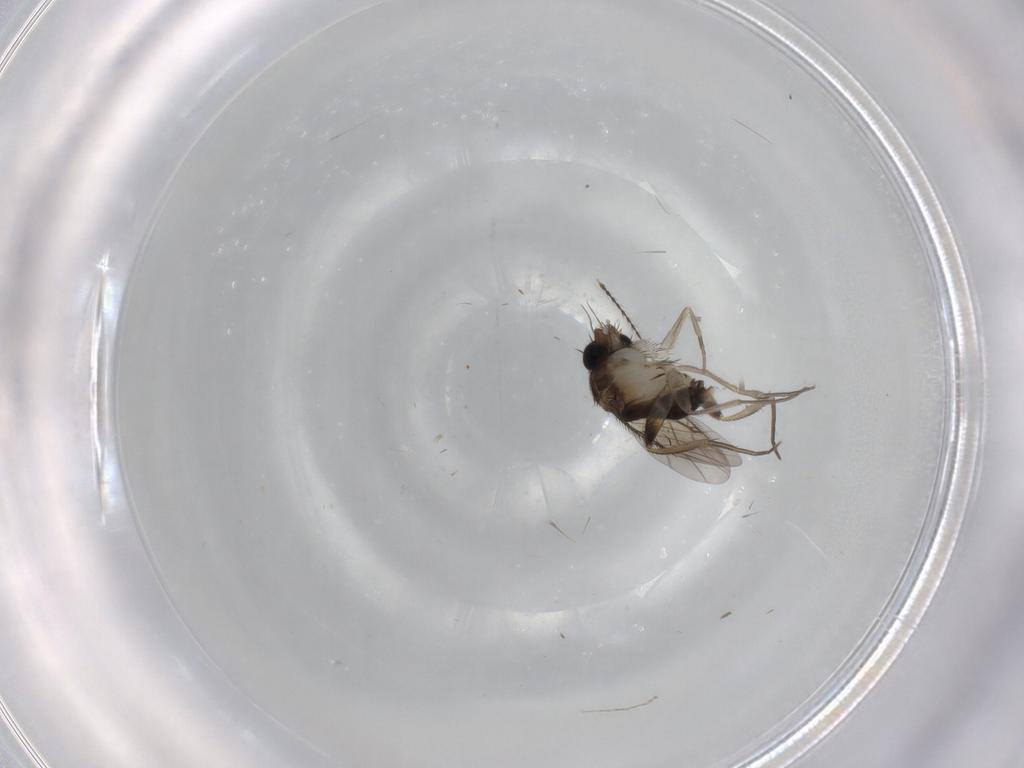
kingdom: Animalia
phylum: Arthropoda
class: Insecta
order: Diptera
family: Phoridae
